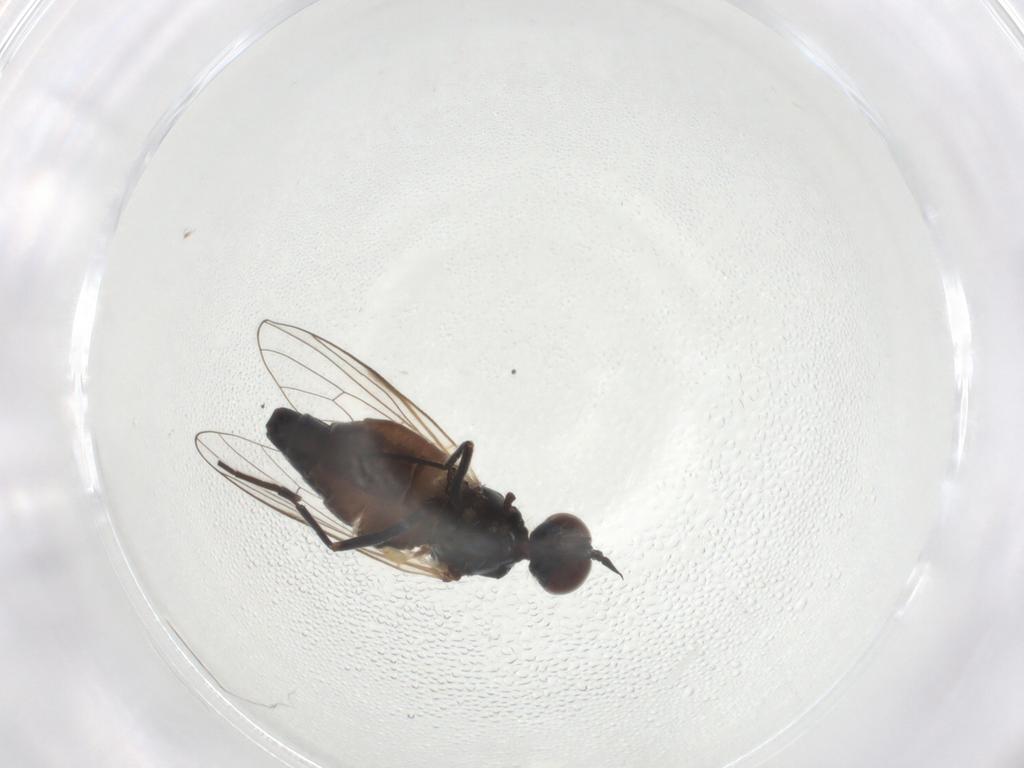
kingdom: Animalia
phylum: Arthropoda
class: Insecta
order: Diptera
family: Dolichopodidae
